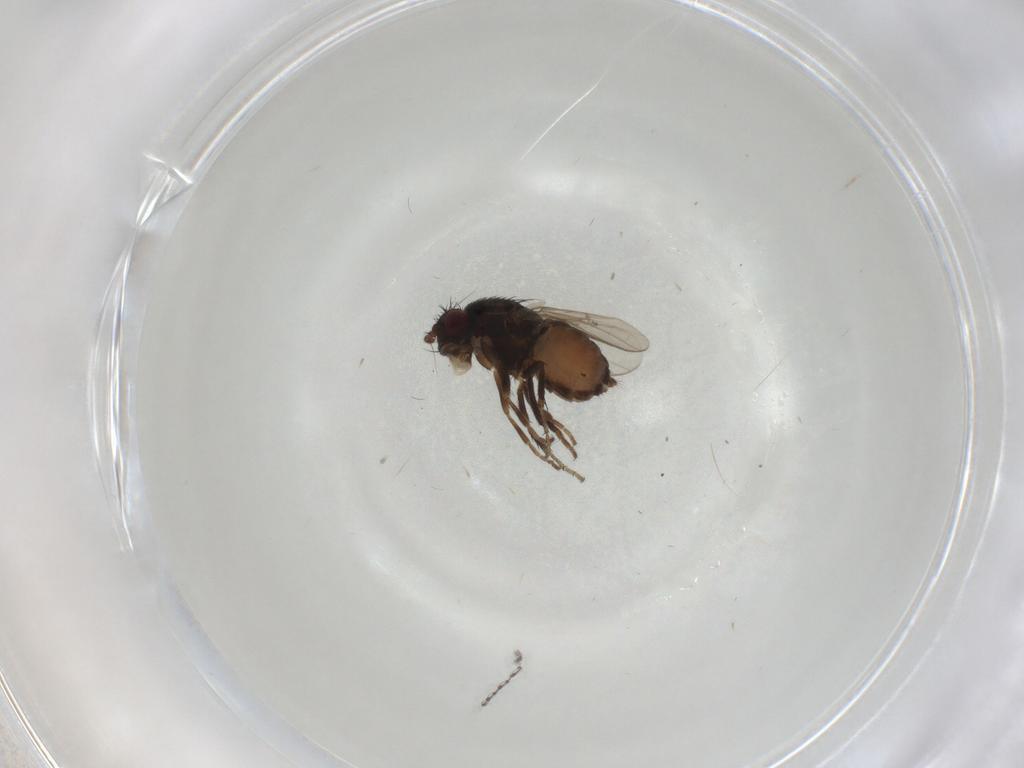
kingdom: Animalia
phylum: Arthropoda
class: Insecta
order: Diptera
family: Sphaeroceridae
